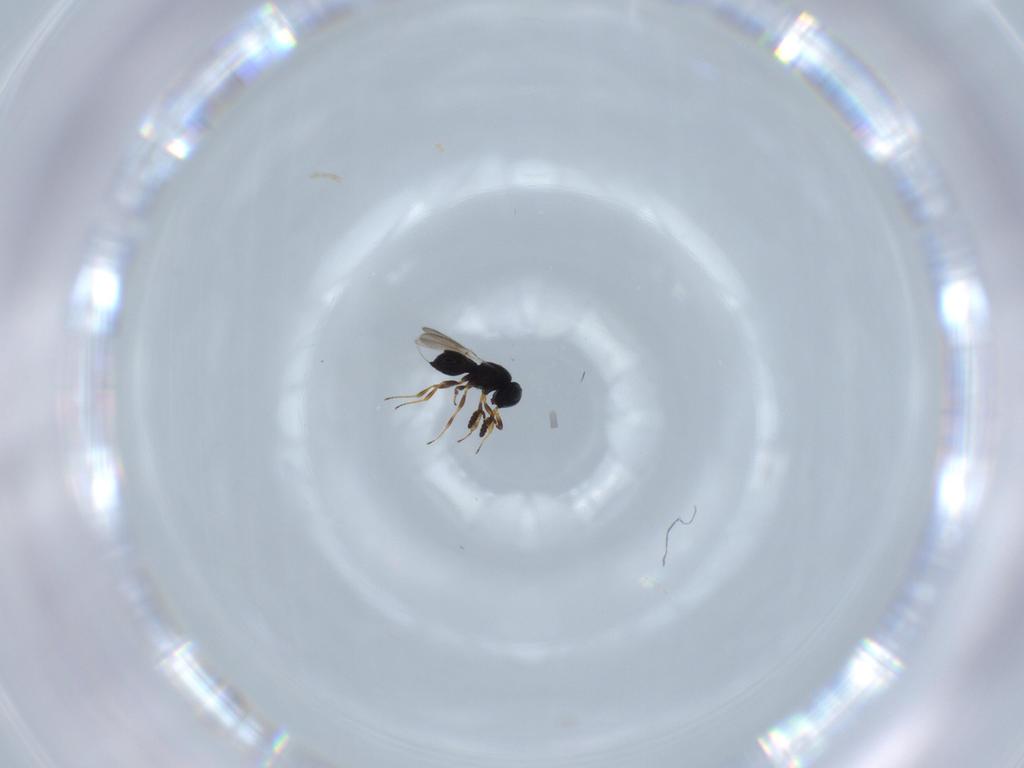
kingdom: Animalia
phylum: Arthropoda
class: Insecta
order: Hymenoptera
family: Scelionidae
